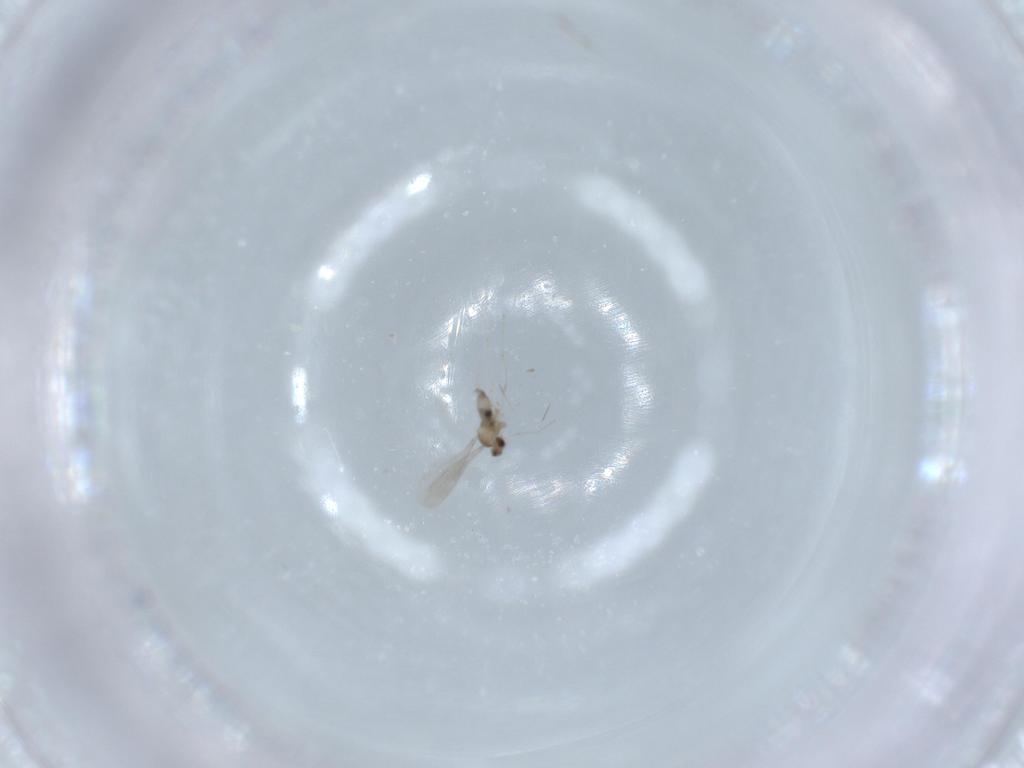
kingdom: Animalia
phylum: Arthropoda
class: Insecta
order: Diptera
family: Cecidomyiidae
